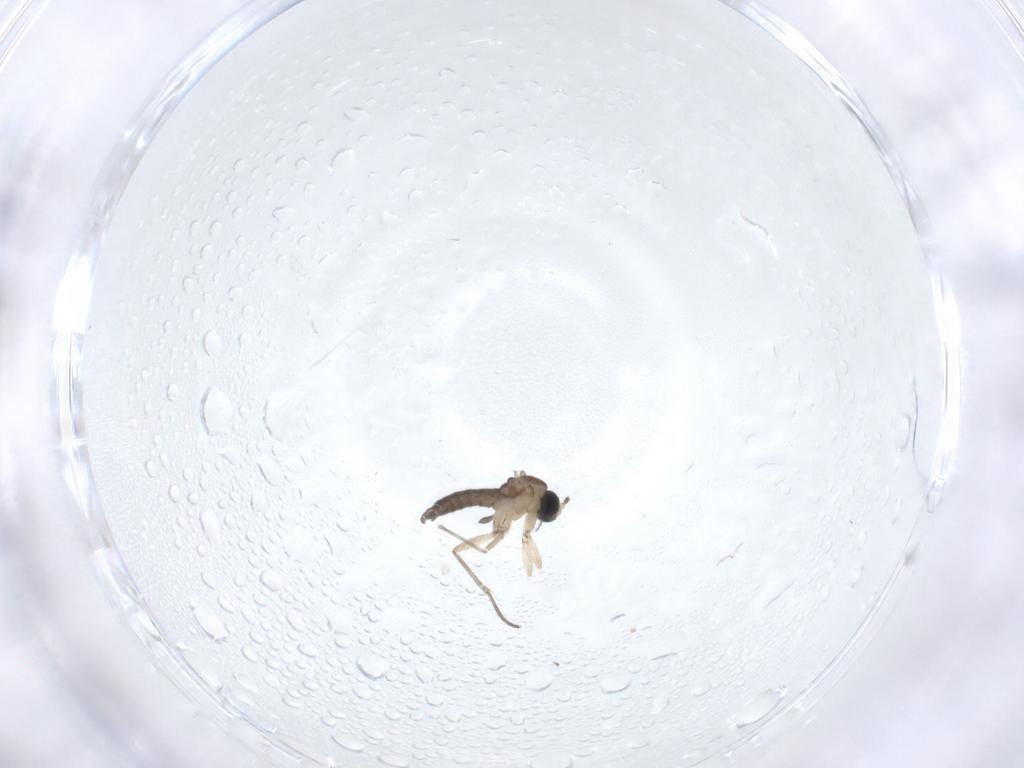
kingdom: Animalia
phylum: Arthropoda
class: Insecta
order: Diptera
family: Sciaridae
